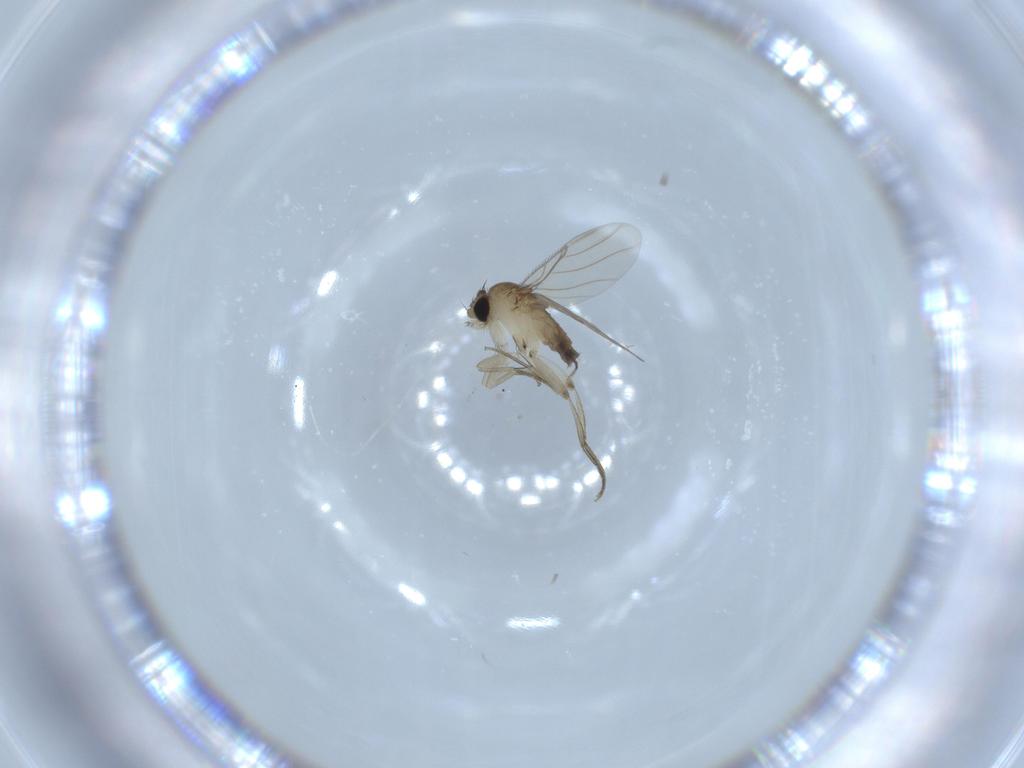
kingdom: Animalia
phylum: Arthropoda
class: Insecta
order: Diptera
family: Phoridae
